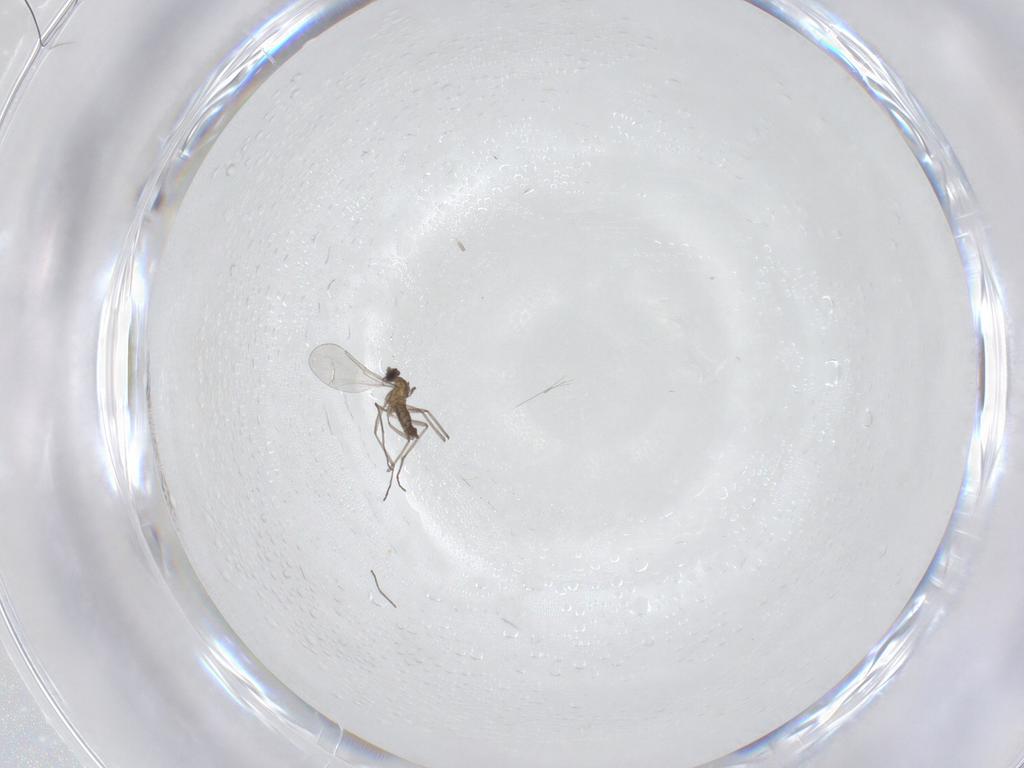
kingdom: Animalia
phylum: Arthropoda
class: Insecta
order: Diptera
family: Cecidomyiidae
